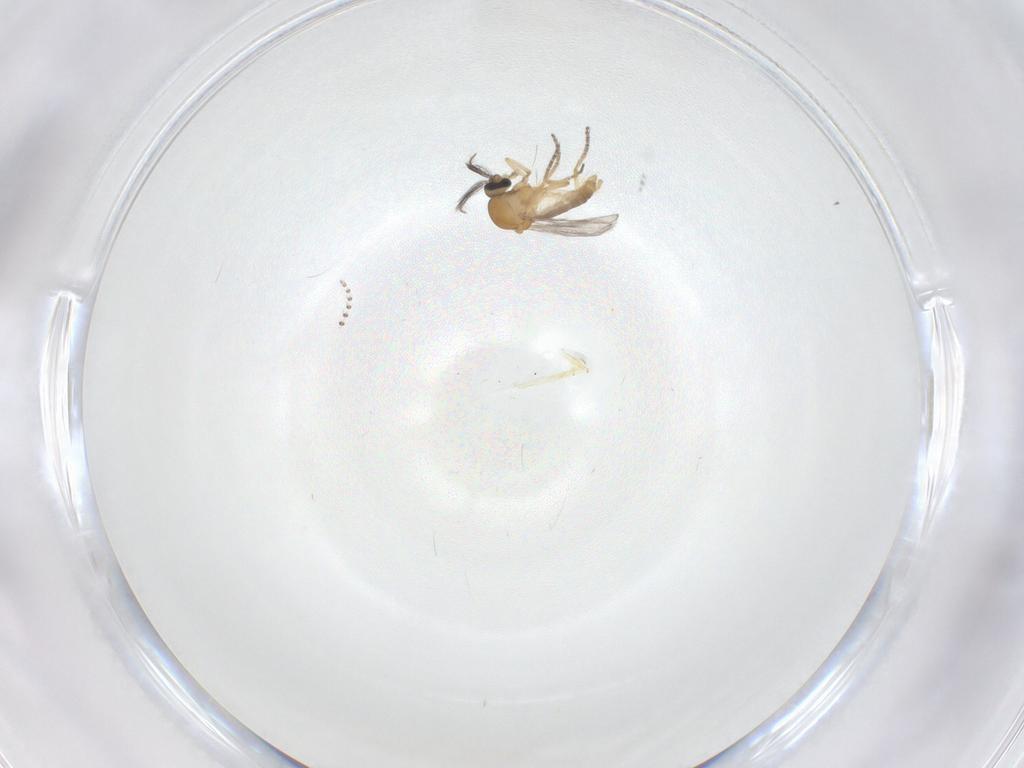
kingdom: Animalia
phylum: Arthropoda
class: Insecta
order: Diptera
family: Ceratopogonidae
